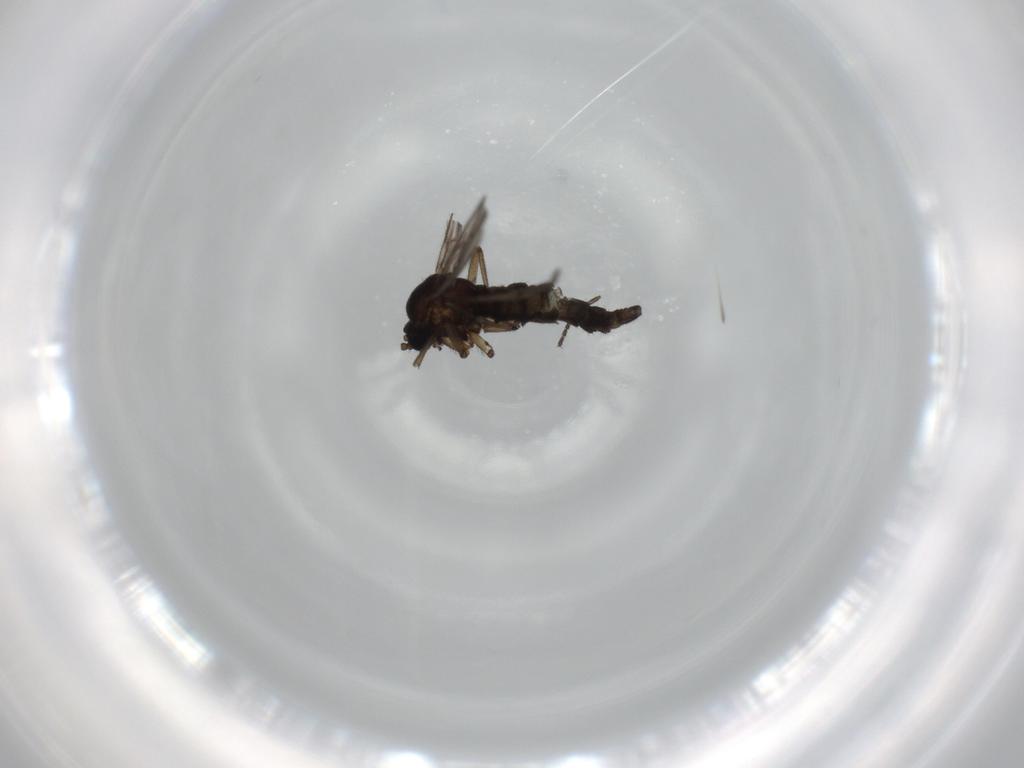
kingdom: Animalia
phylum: Arthropoda
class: Insecta
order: Diptera
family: Sciaridae
